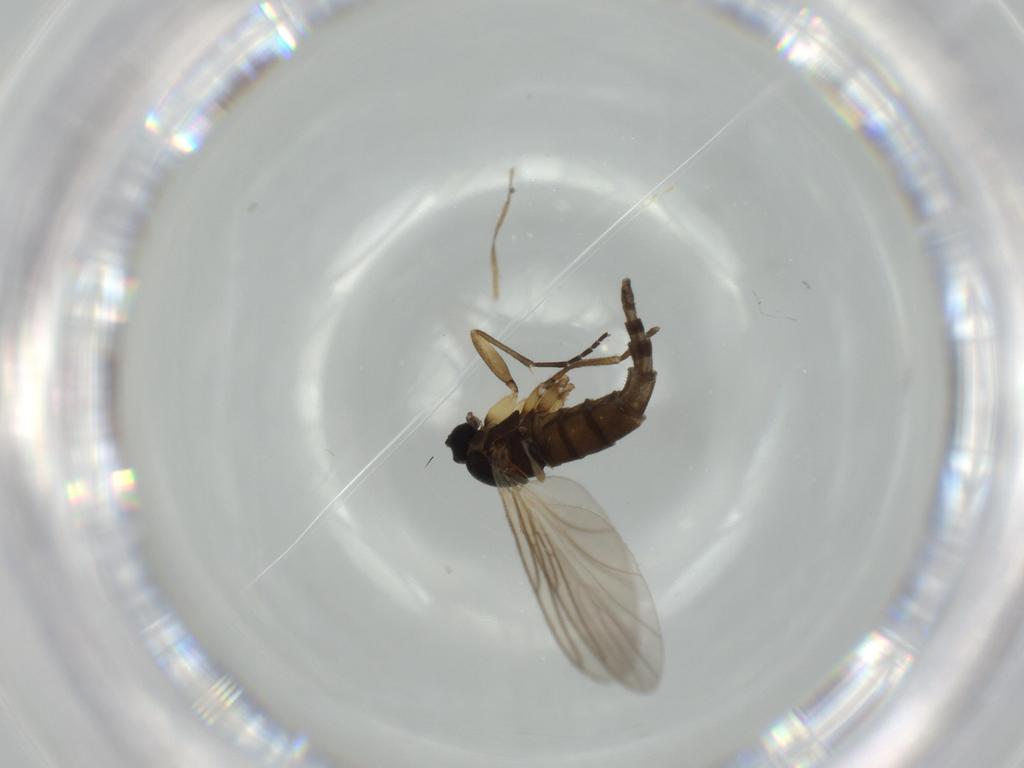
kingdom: Animalia
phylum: Arthropoda
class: Insecta
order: Diptera
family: Sciaridae
